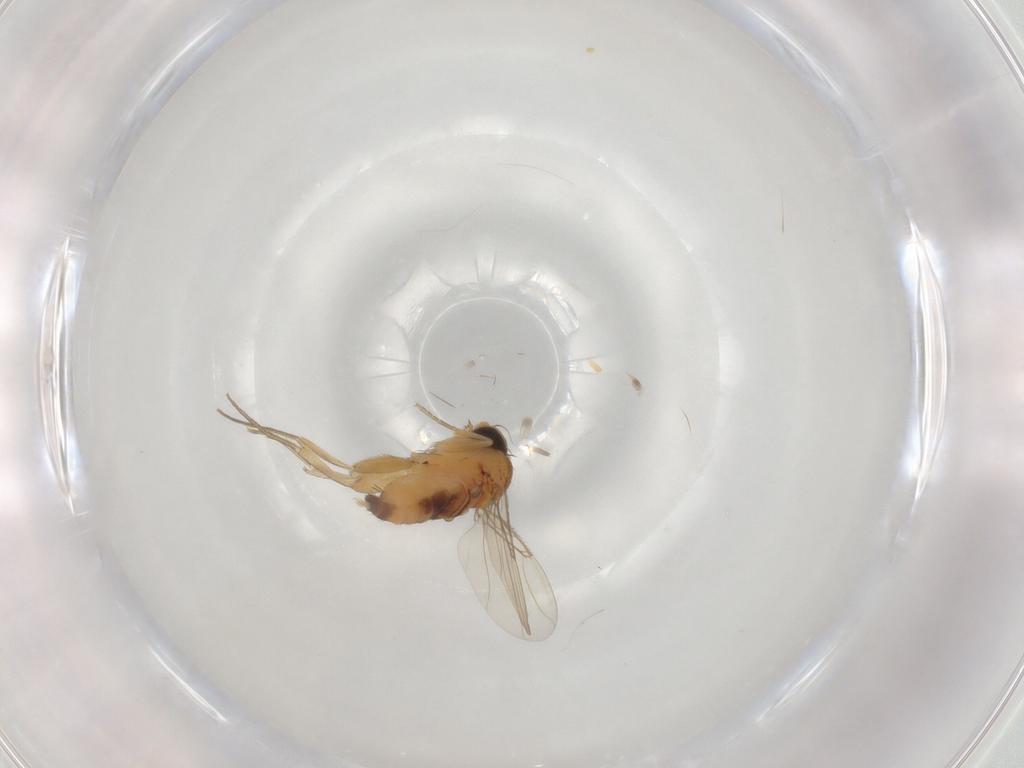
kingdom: Animalia
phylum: Arthropoda
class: Insecta
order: Diptera
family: Phoridae
